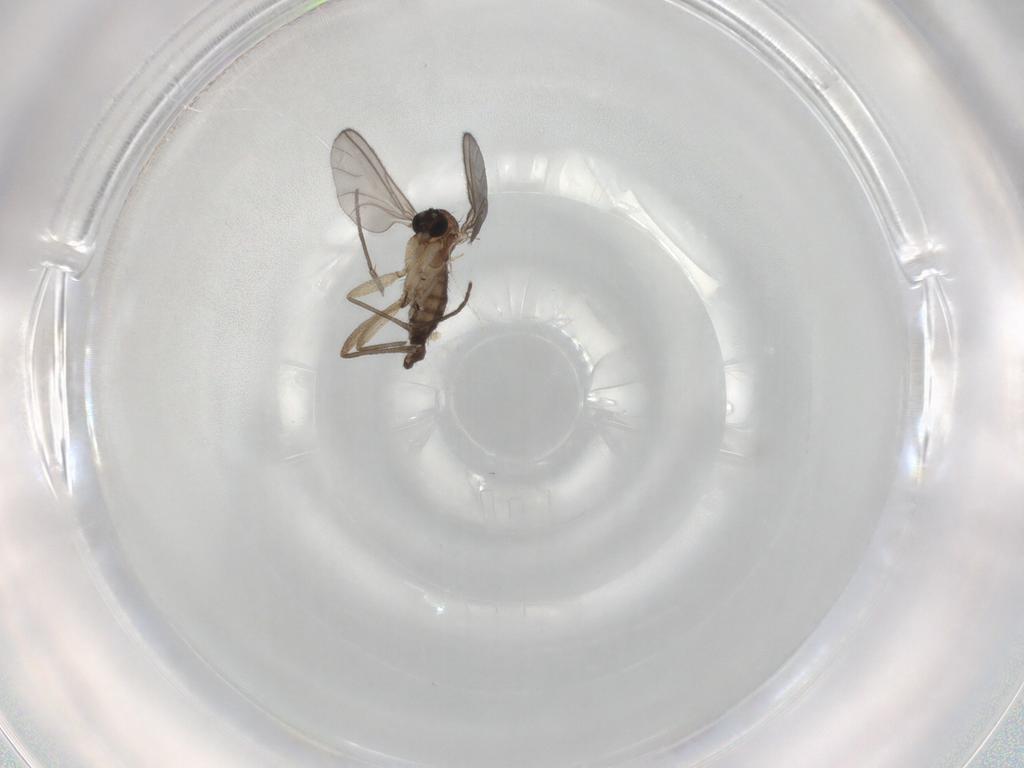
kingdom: Animalia
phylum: Arthropoda
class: Insecta
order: Diptera
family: Sciaridae
